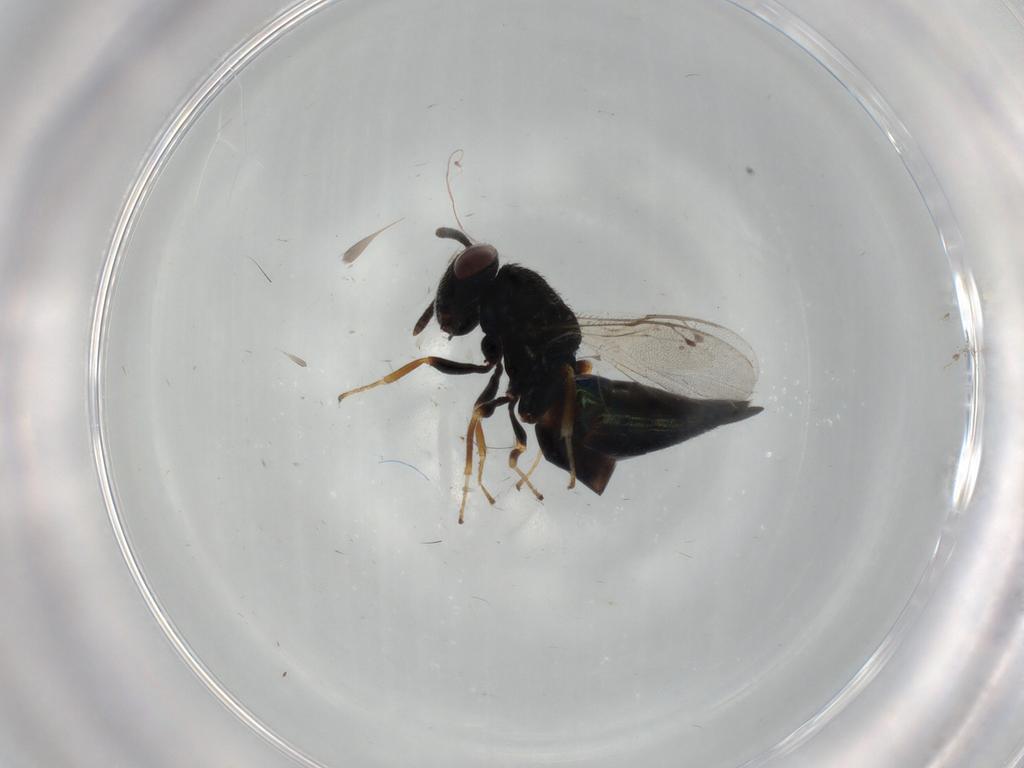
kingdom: Animalia
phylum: Arthropoda
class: Insecta
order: Hymenoptera
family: Pteromalidae
